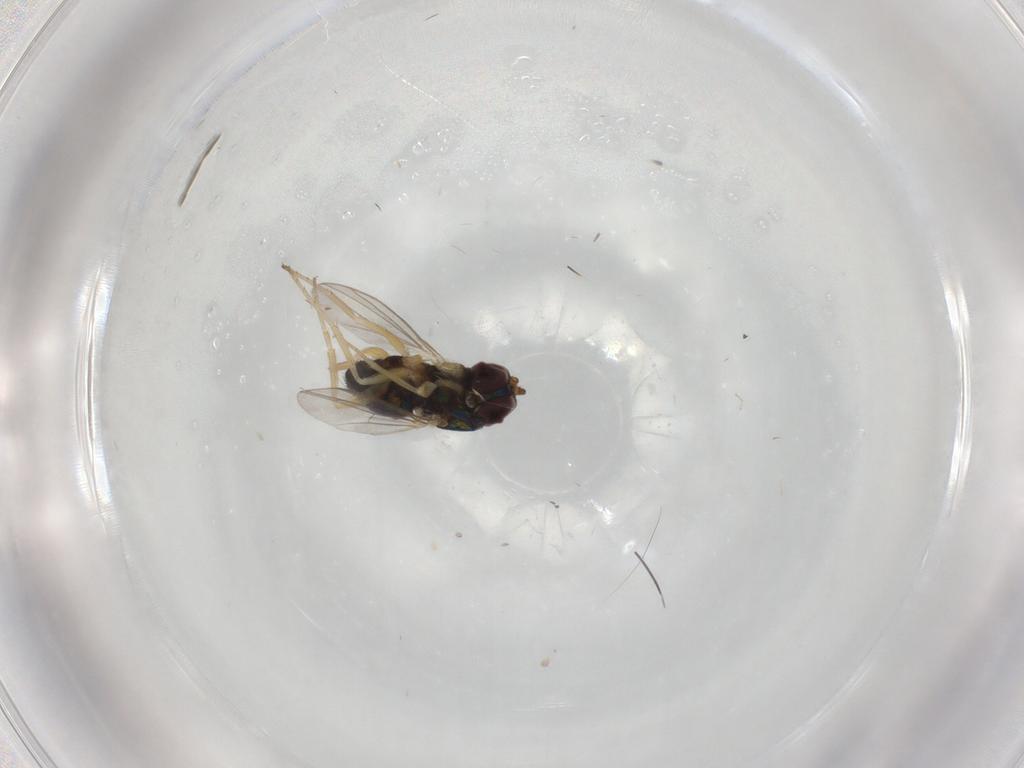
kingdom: Animalia
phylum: Arthropoda
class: Insecta
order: Diptera
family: Dolichopodidae
